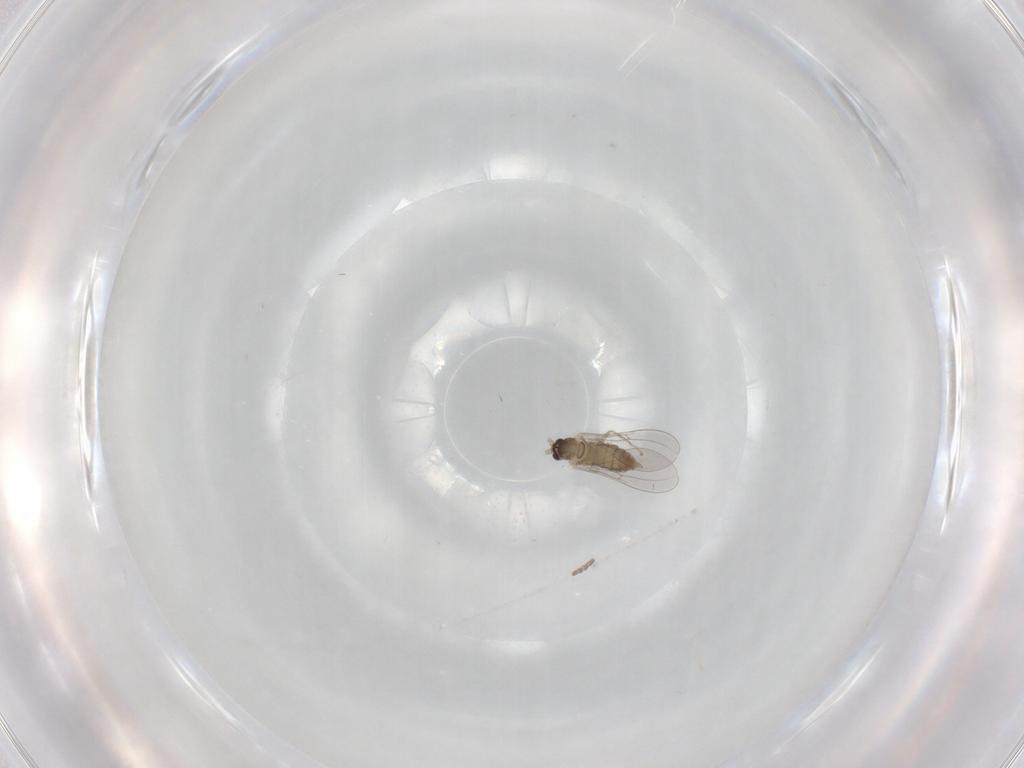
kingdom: Animalia
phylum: Arthropoda
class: Insecta
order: Diptera
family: Cecidomyiidae
